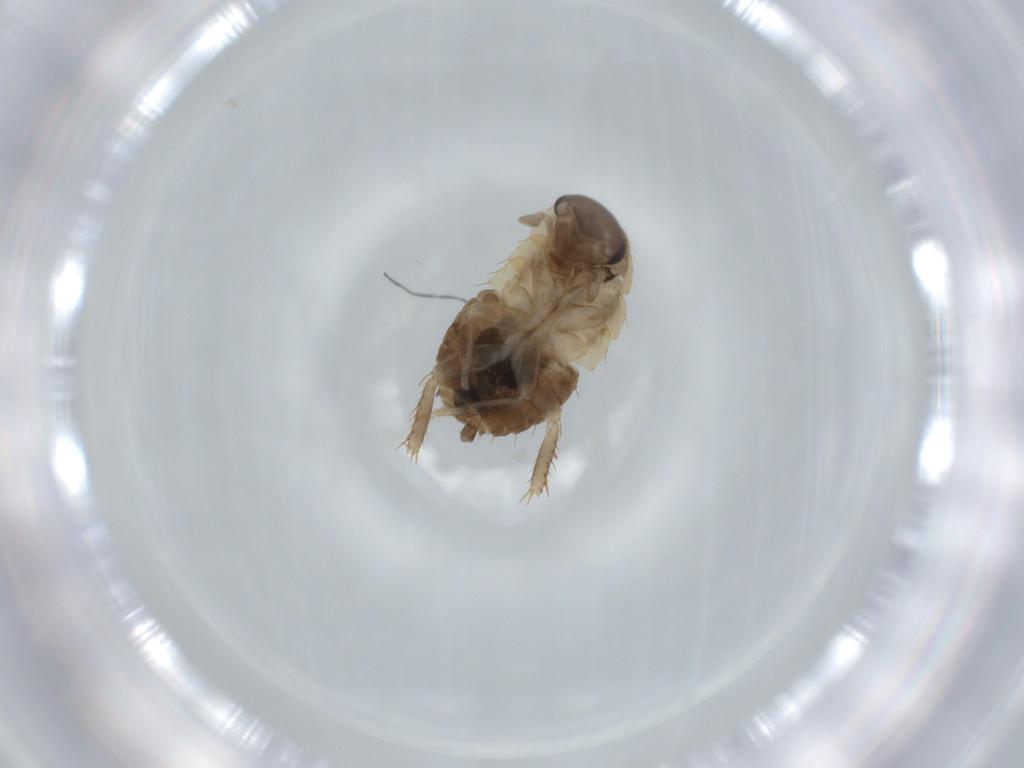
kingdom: Animalia
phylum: Arthropoda
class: Insecta
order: Blattodea
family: Ectobiidae
